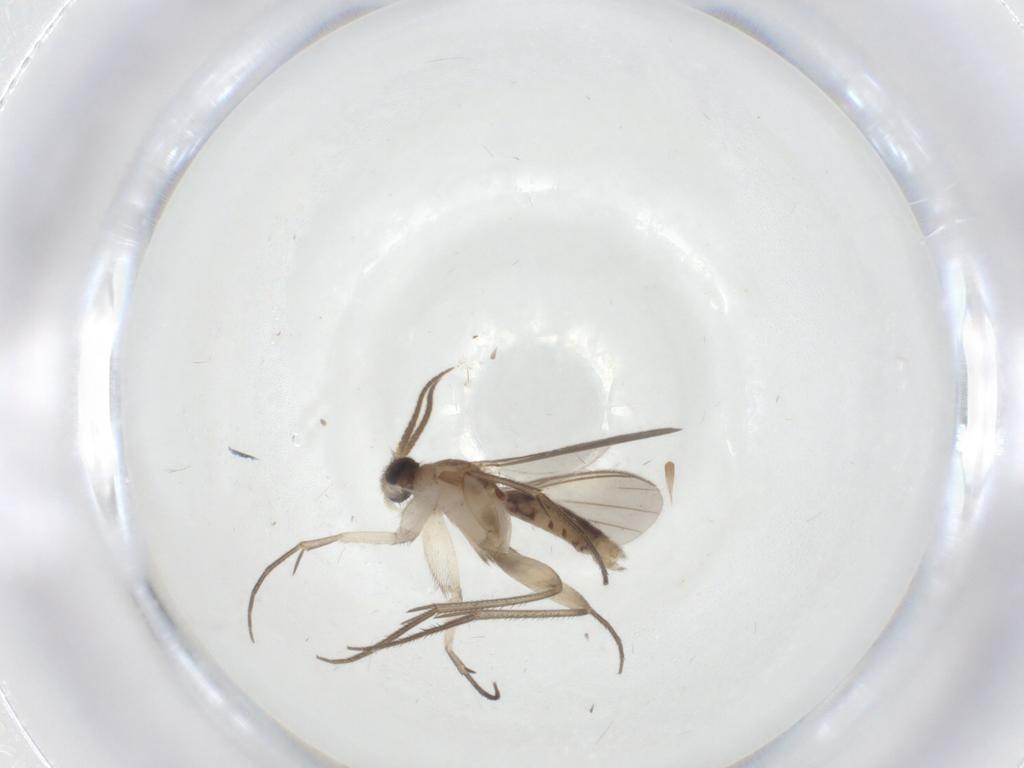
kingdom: Animalia
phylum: Arthropoda
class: Insecta
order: Diptera
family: Mycetophilidae
